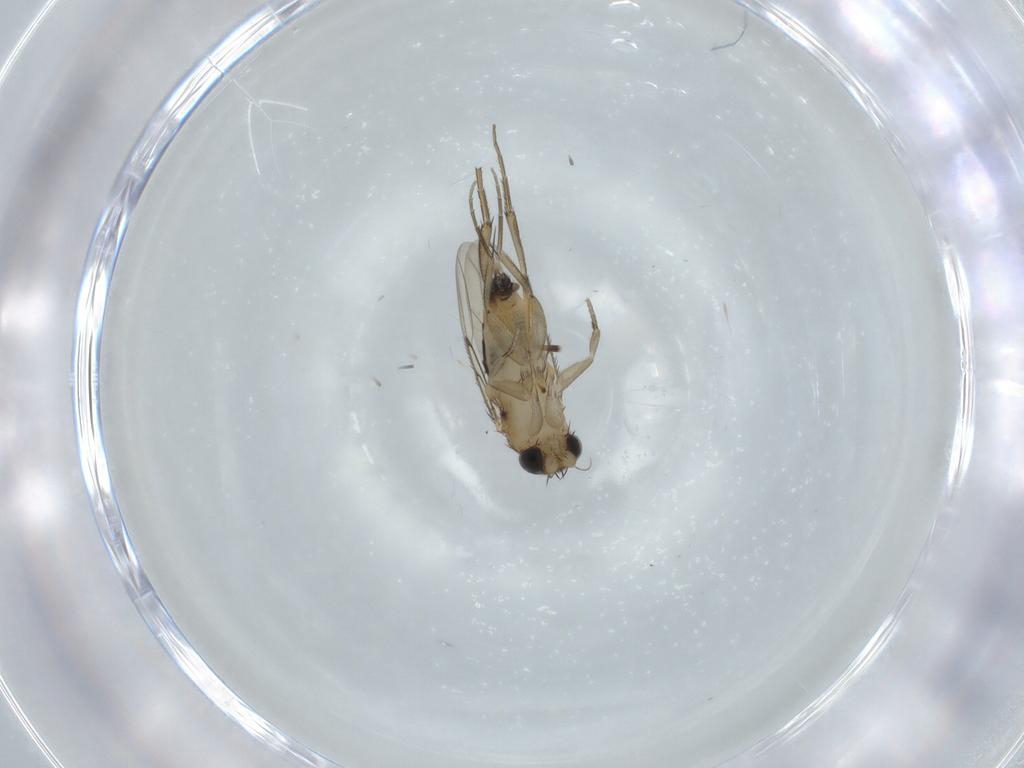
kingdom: Animalia
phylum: Arthropoda
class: Insecta
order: Diptera
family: Phoridae
